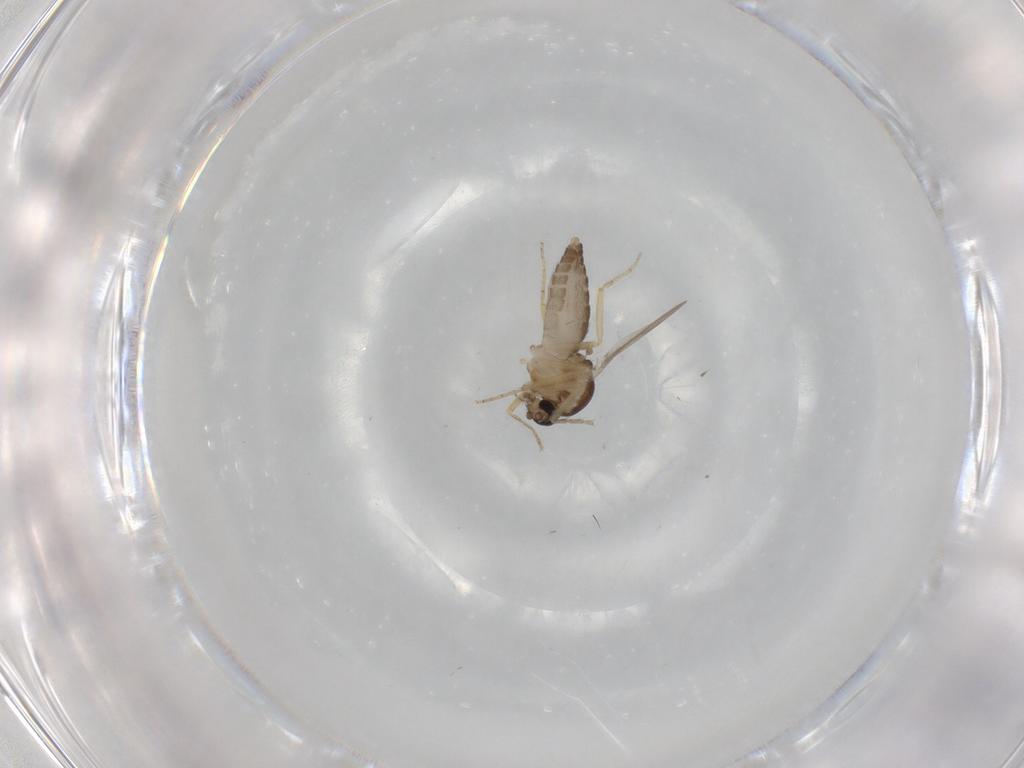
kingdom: Animalia
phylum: Arthropoda
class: Insecta
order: Diptera
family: Ceratopogonidae
